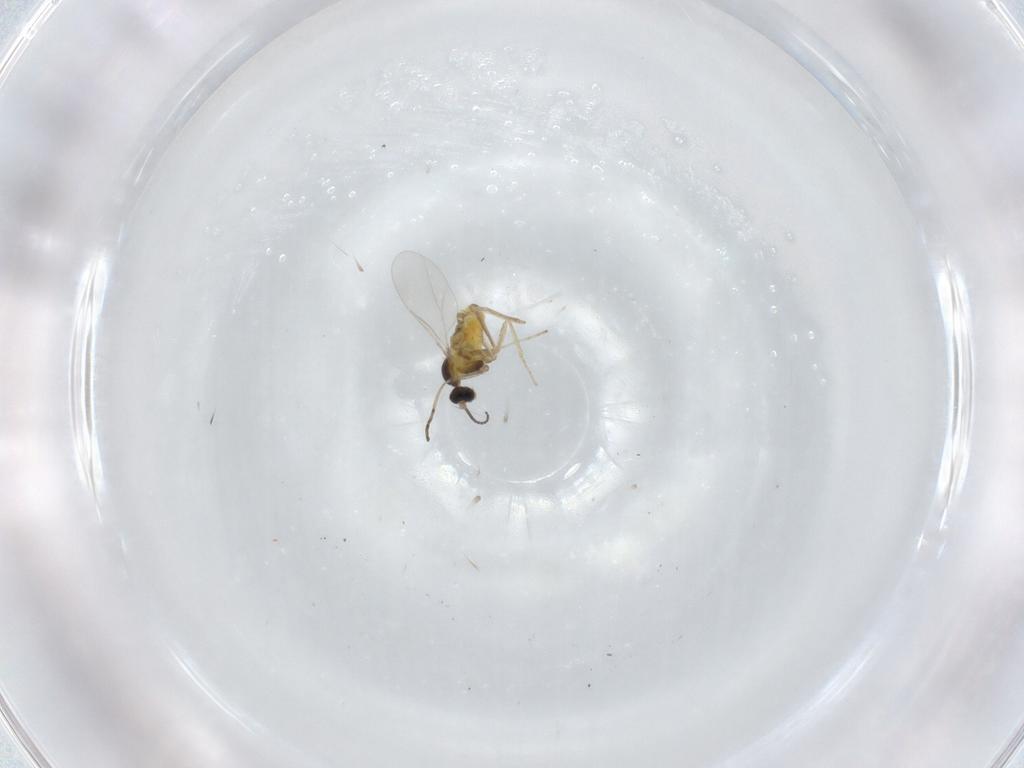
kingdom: Animalia
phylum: Arthropoda
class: Insecta
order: Diptera
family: Cecidomyiidae
